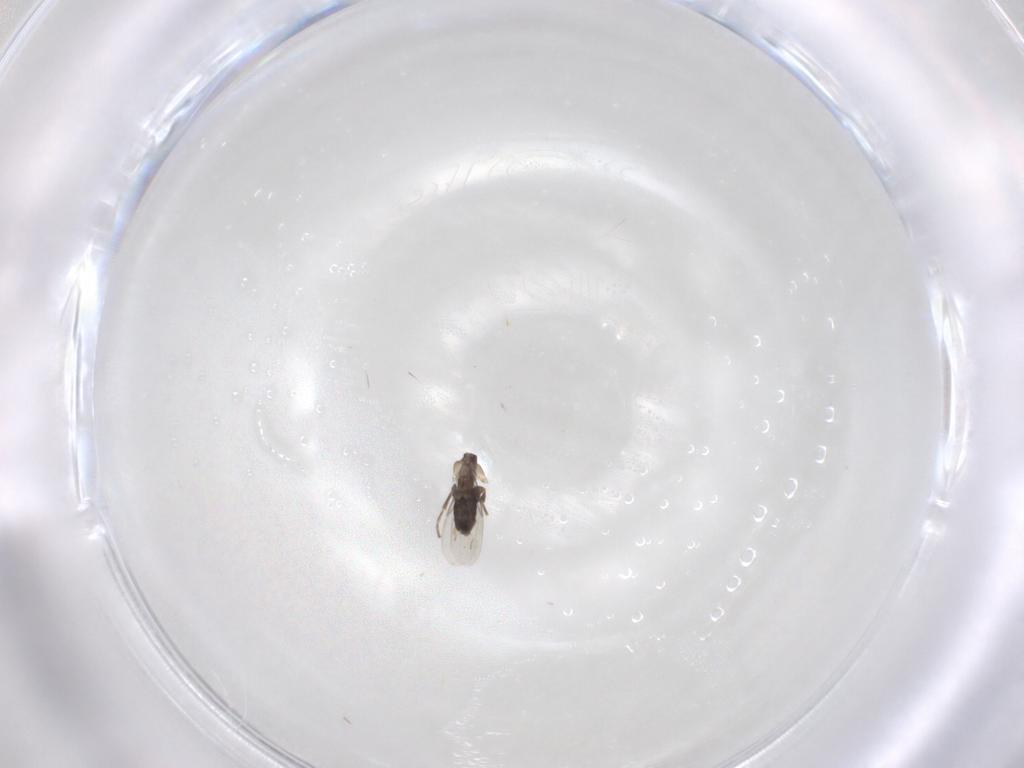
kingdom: Animalia
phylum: Arthropoda
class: Insecta
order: Diptera
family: Phoridae
